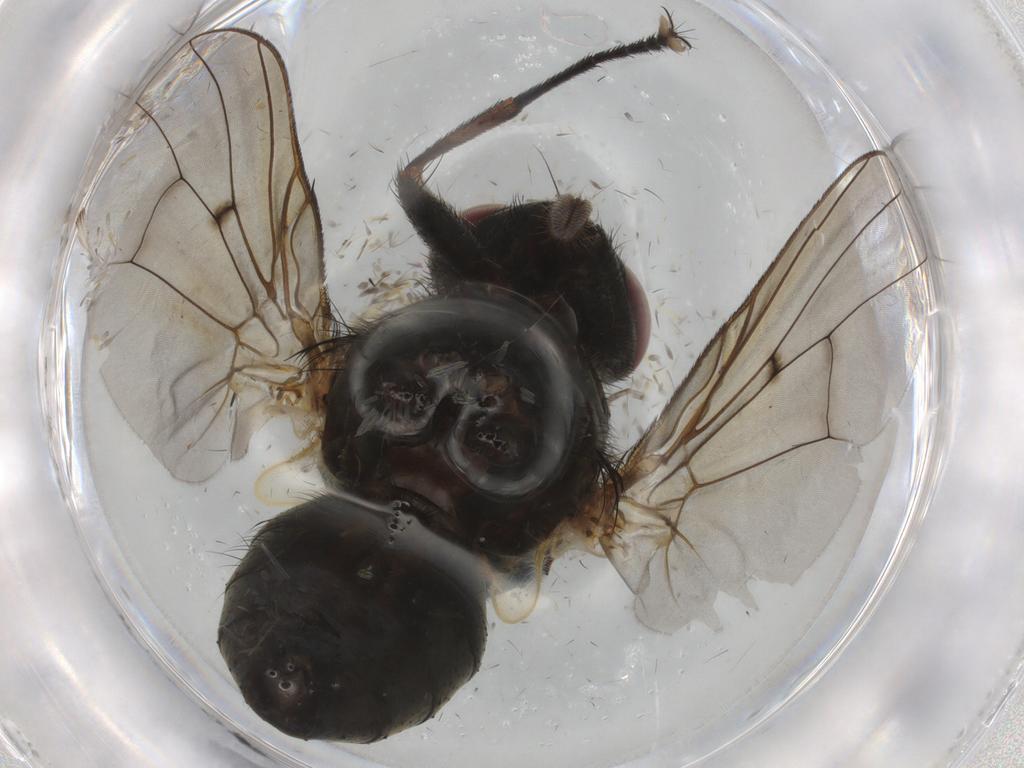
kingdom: Animalia
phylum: Arthropoda
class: Insecta
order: Diptera
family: Muscidae
